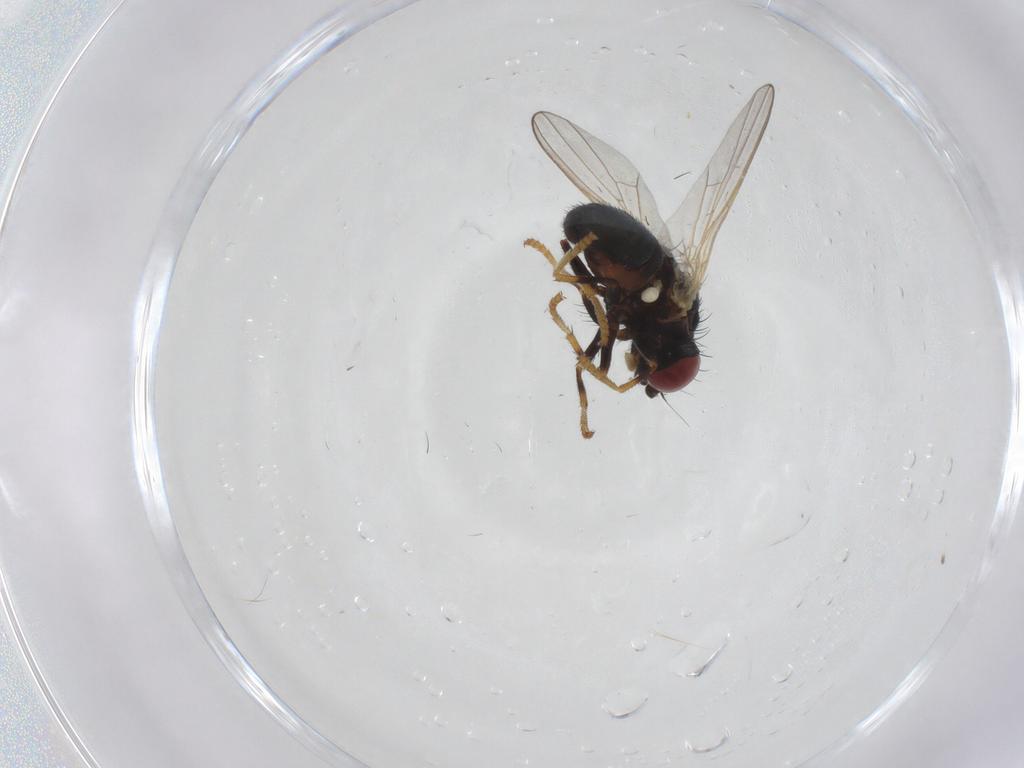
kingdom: Animalia
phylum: Arthropoda
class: Insecta
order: Diptera
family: Chamaemyiidae
